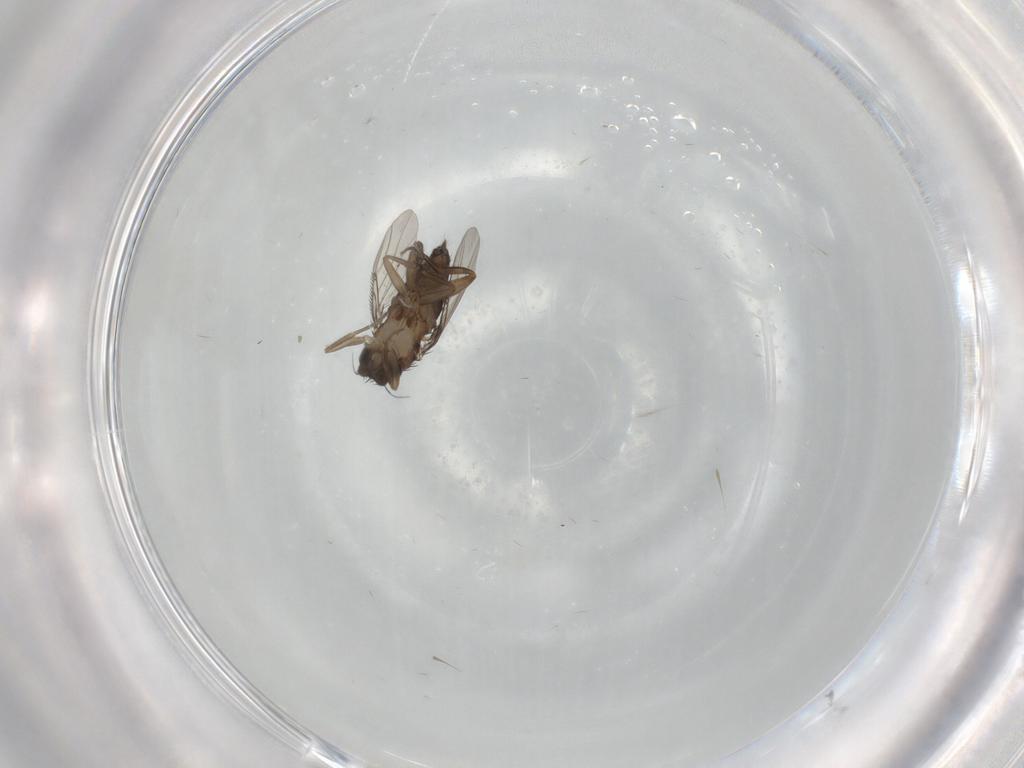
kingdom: Animalia
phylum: Arthropoda
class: Insecta
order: Diptera
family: Phoridae
